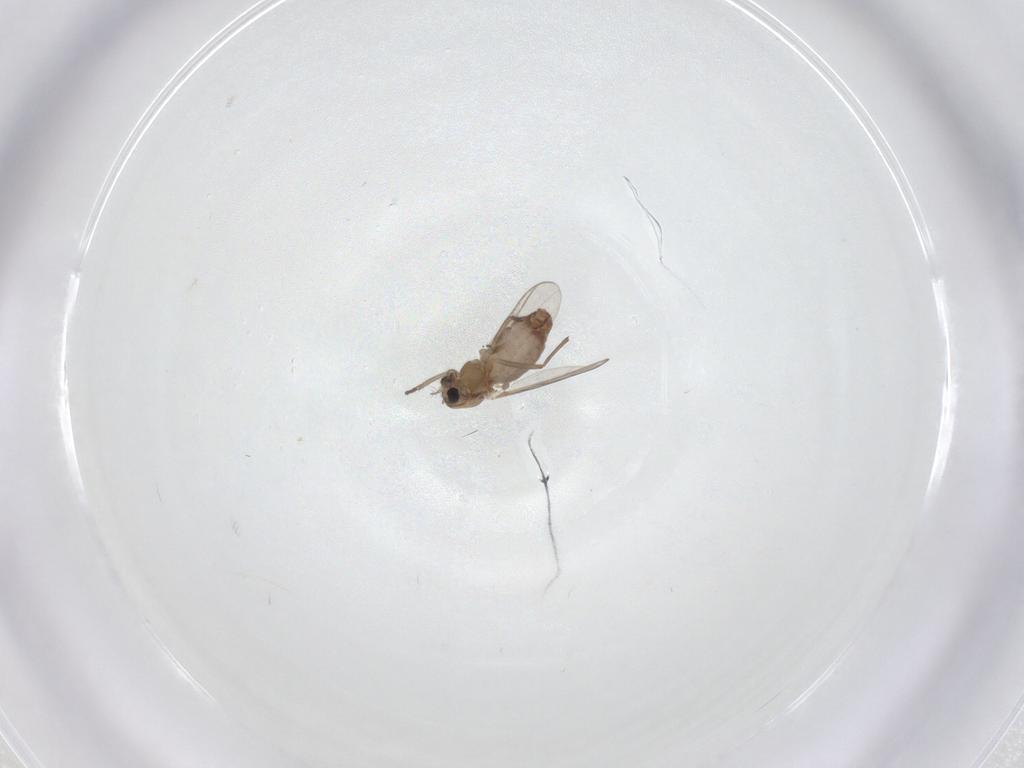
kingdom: Animalia
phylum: Arthropoda
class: Insecta
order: Diptera
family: Chironomidae
